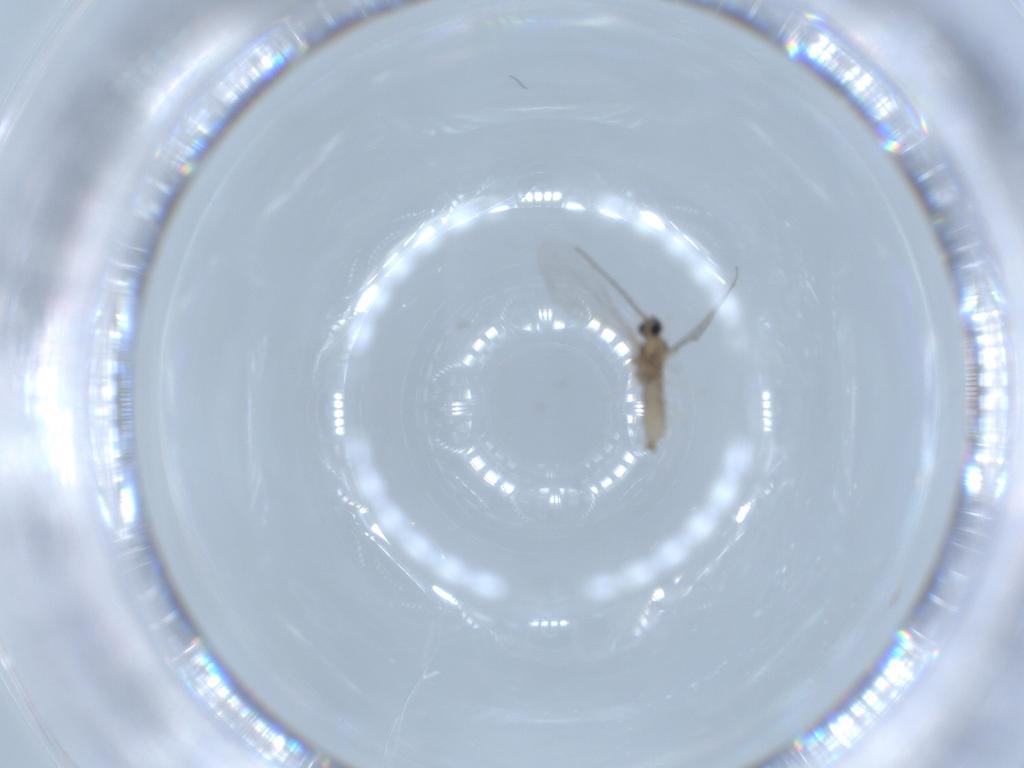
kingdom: Animalia
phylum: Arthropoda
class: Insecta
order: Diptera
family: Cecidomyiidae
